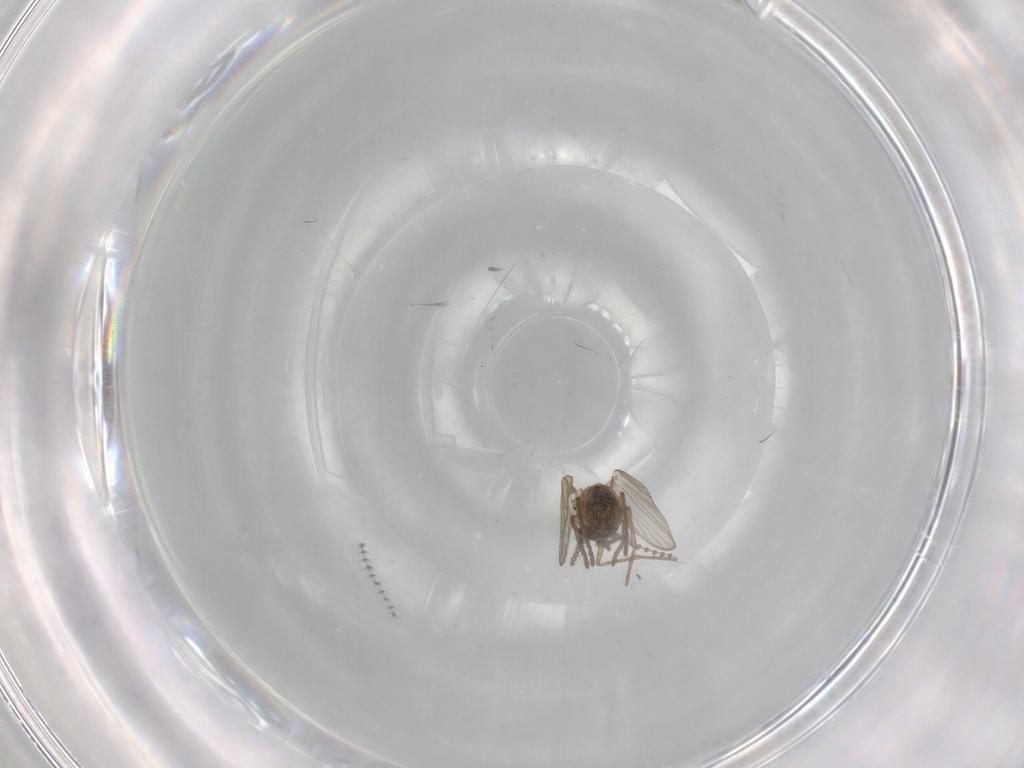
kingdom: Animalia
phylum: Arthropoda
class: Insecta
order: Diptera
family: Psychodidae
